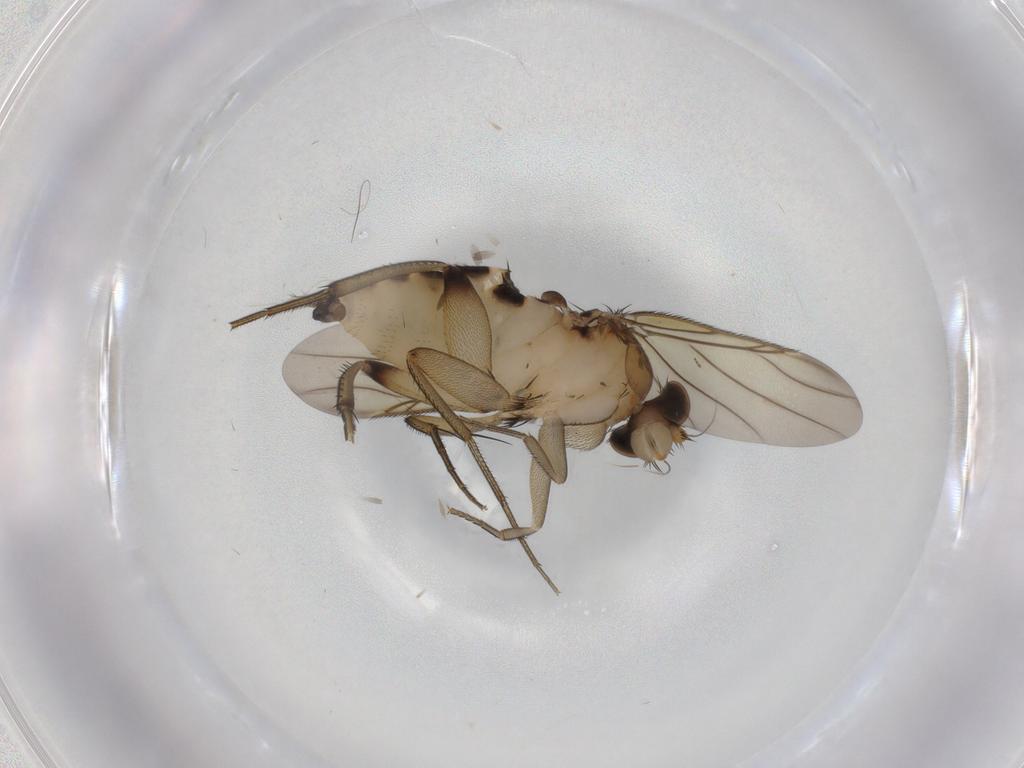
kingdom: Animalia
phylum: Arthropoda
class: Insecta
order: Diptera
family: Phoridae
